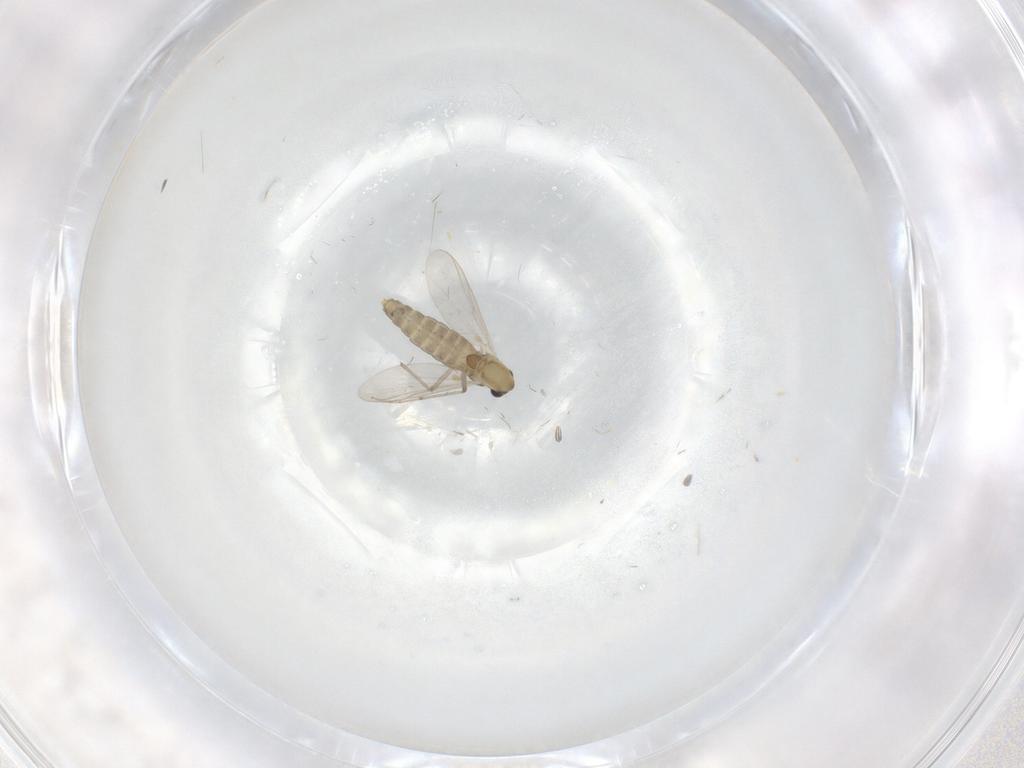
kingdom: Animalia
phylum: Arthropoda
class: Insecta
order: Diptera
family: Chironomidae
